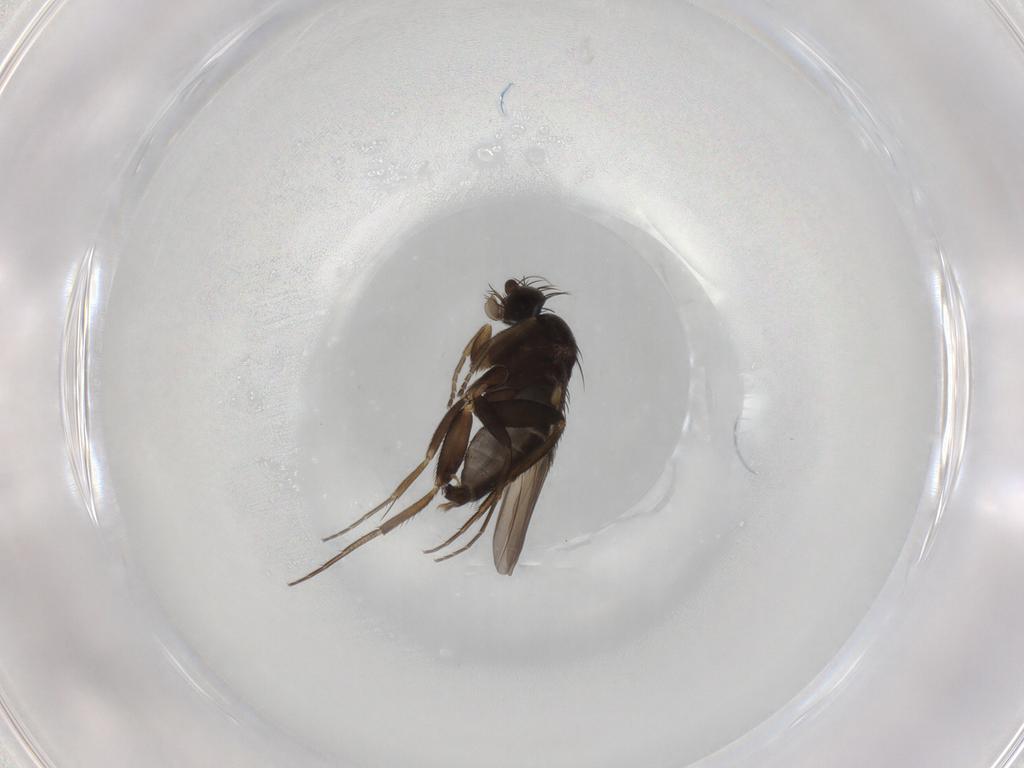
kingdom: Animalia
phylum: Arthropoda
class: Insecta
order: Diptera
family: Phoridae
